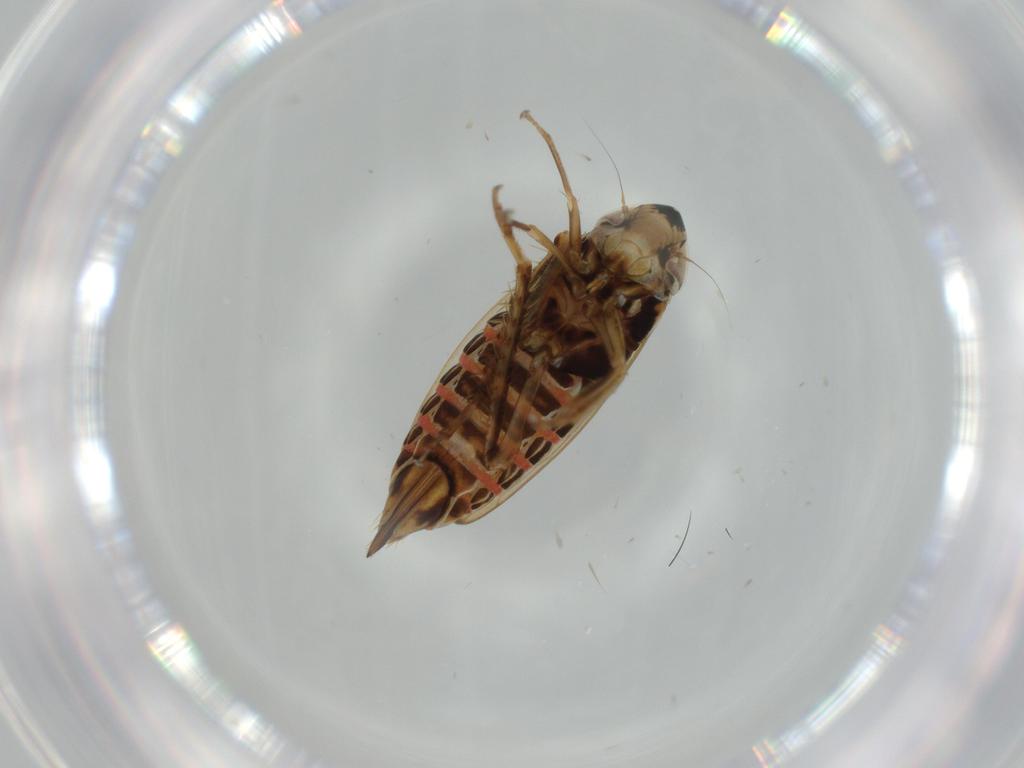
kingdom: Animalia
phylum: Arthropoda
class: Insecta
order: Hemiptera
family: Cicadellidae
